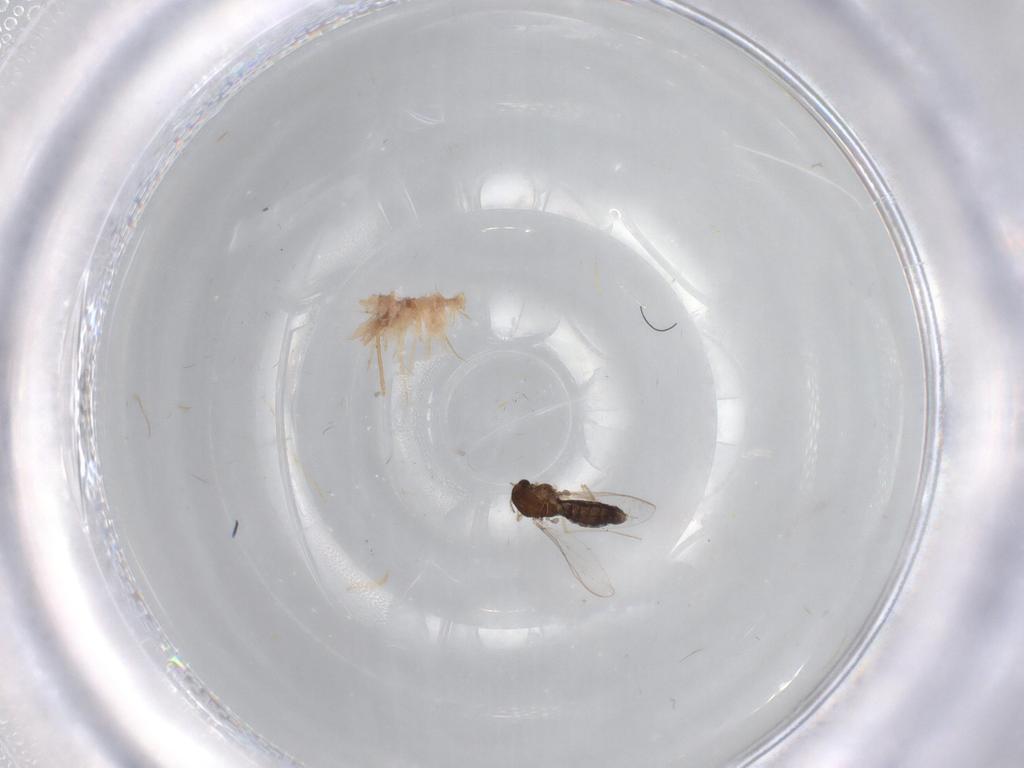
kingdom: Animalia
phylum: Arthropoda
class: Insecta
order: Diptera
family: Chironomidae
